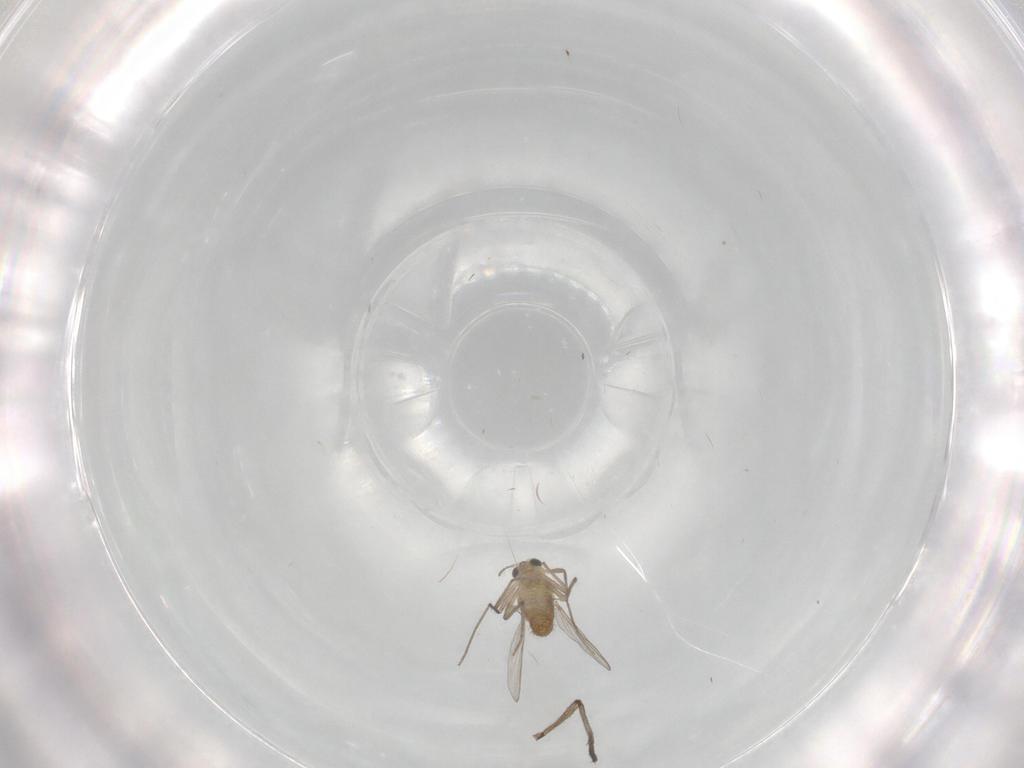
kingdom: Animalia
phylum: Arthropoda
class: Insecta
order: Diptera
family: Chironomidae
